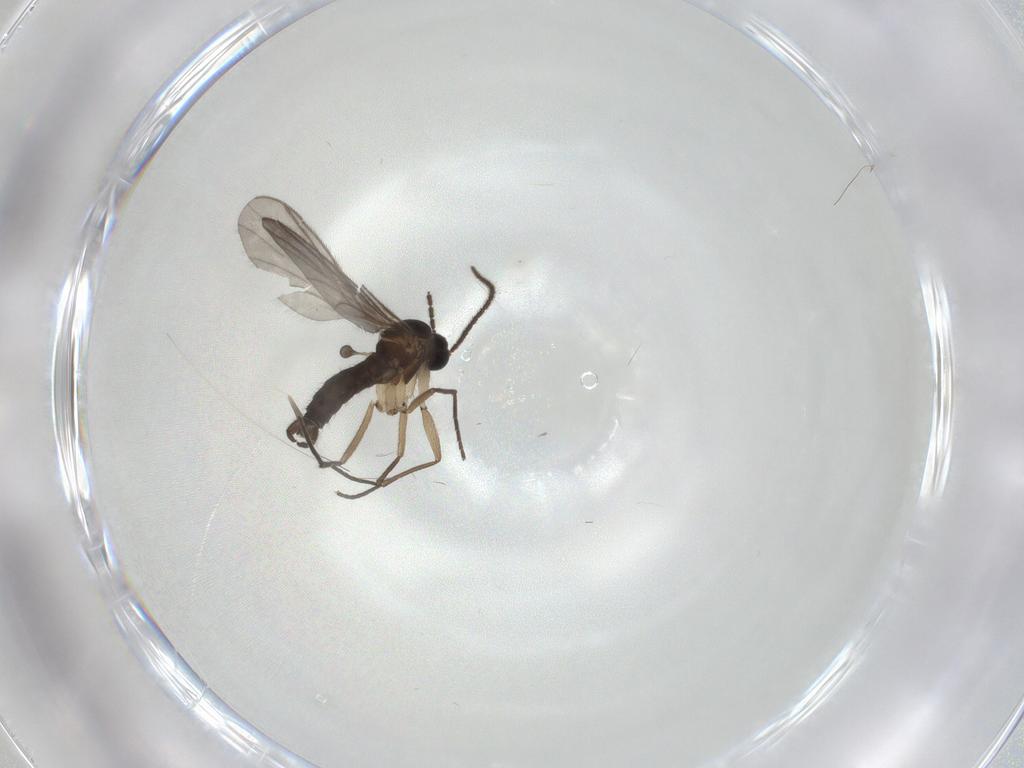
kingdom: Animalia
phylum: Arthropoda
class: Insecta
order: Diptera
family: Sciaridae
